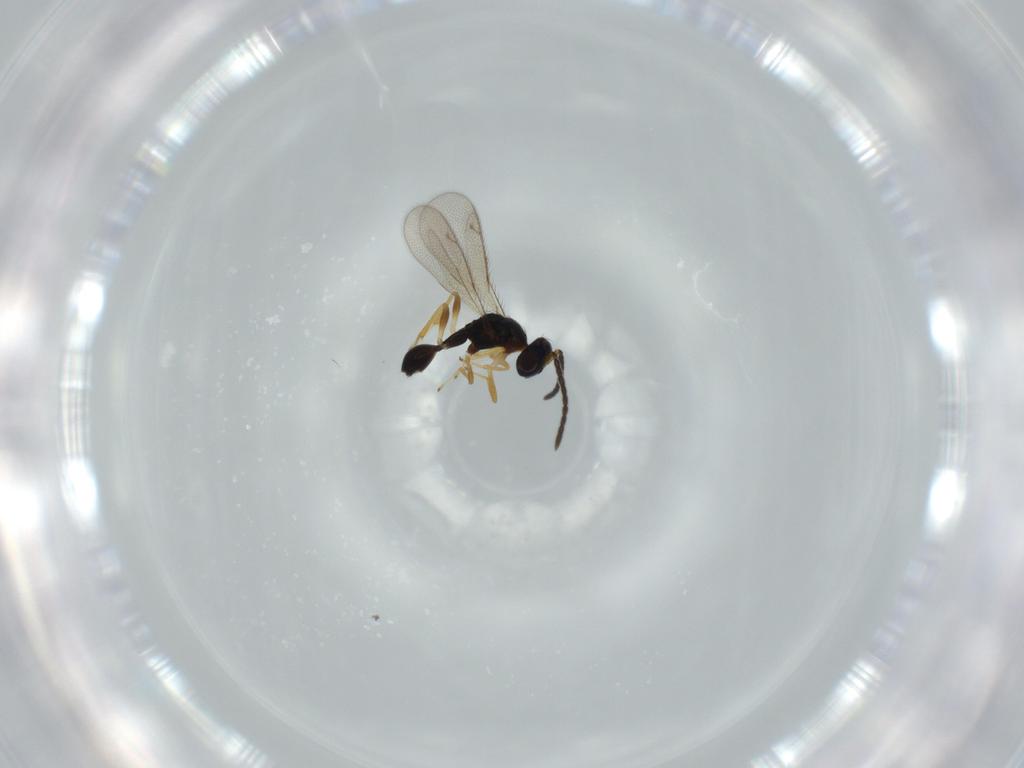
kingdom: Animalia
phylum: Arthropoda
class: Insecta
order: Hymenoptera
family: Diparidae
